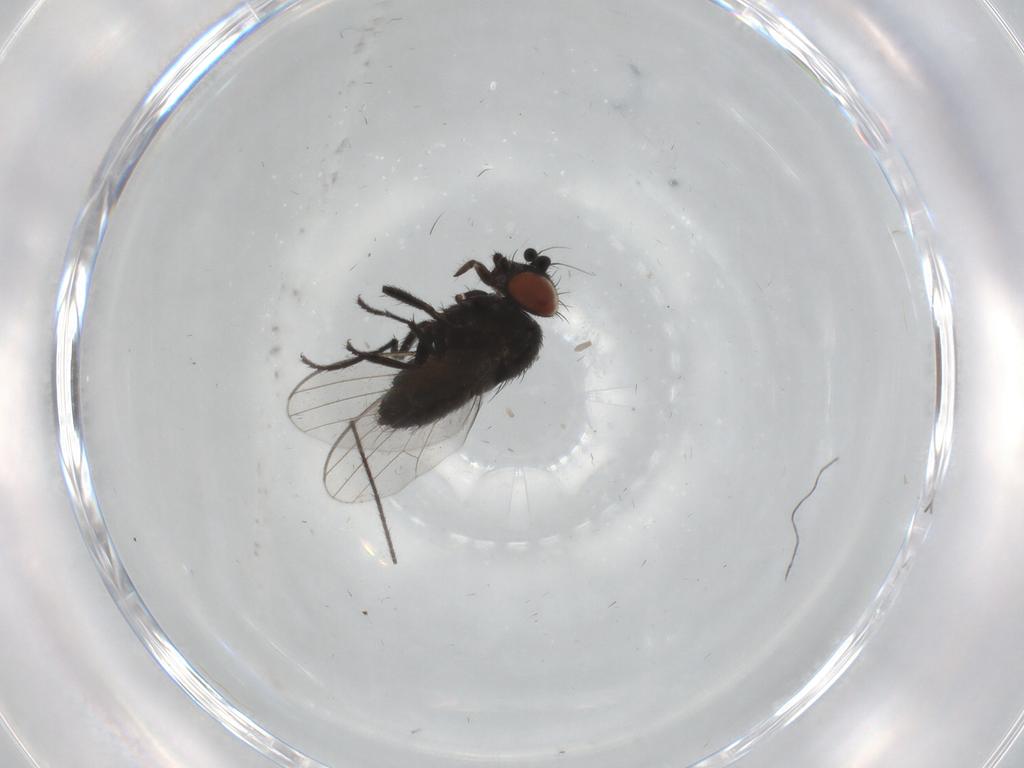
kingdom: Animalia
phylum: Arthropoda
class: Insecta
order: Diptera
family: Milichiidae
